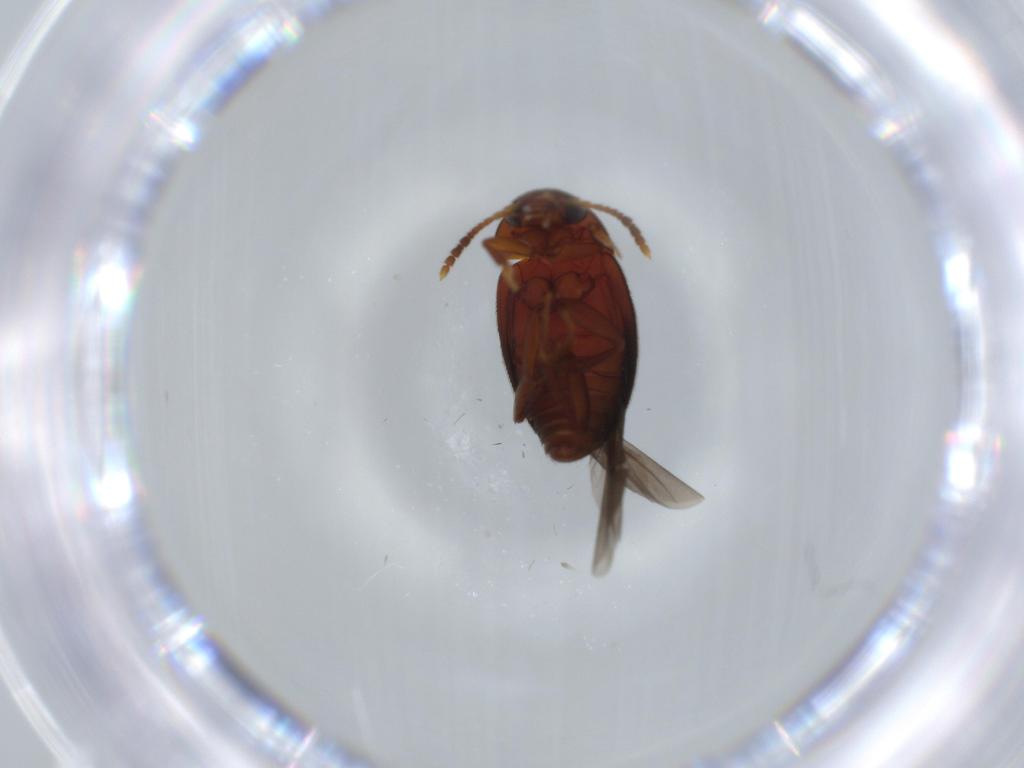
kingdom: Animalia
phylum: Arthropoda
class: Insecta
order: Coleoptera
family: Leiodidae
